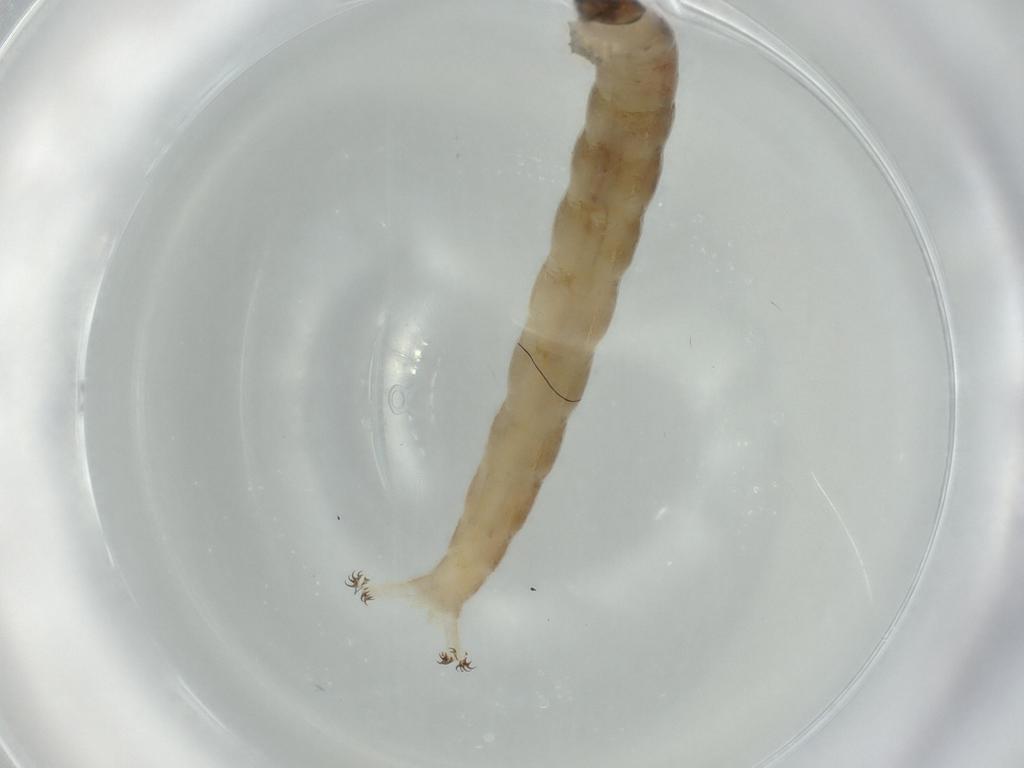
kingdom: Animalia
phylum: Arthropoda
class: Insecta
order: Diptera
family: Chironomidae
